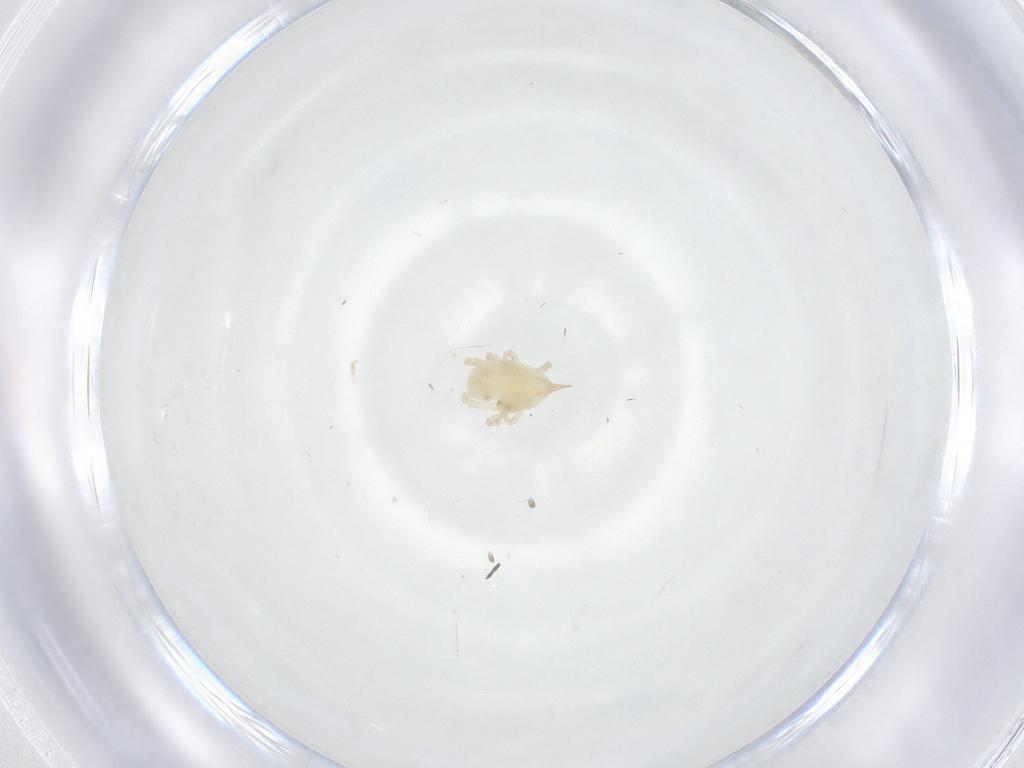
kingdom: Animalia
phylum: Arthropoda
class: Arachnida
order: Trombidiformes
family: Bdellidae
